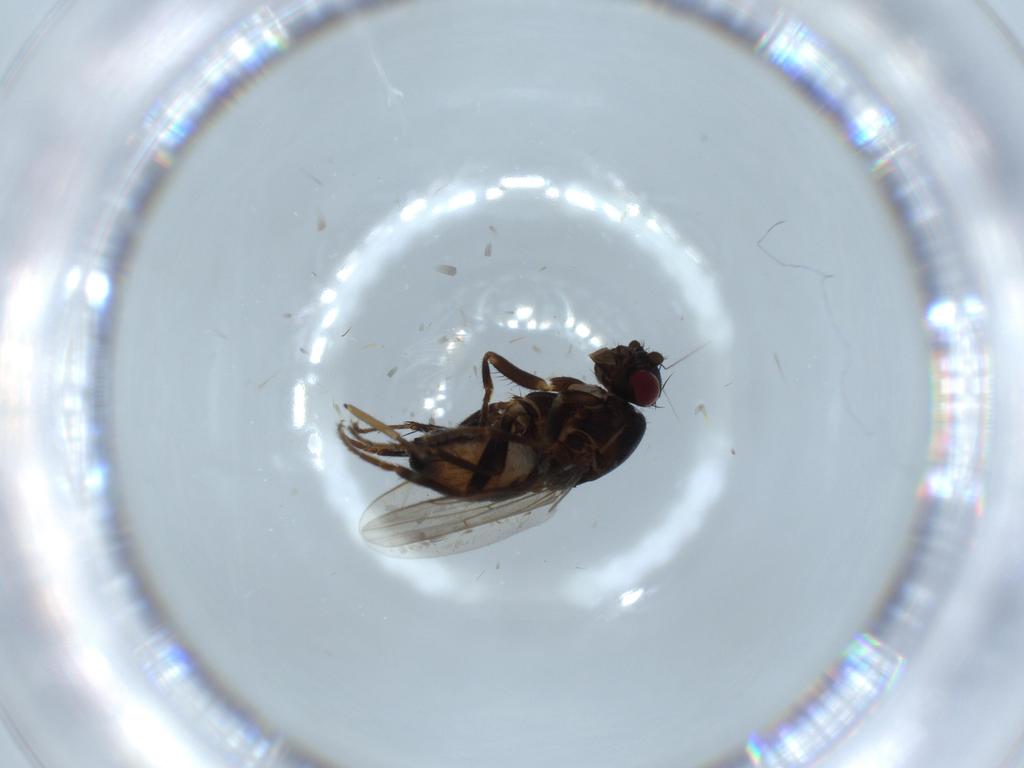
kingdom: Animalia
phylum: Arthropoda
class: Insecta
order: Diptera
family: Sphaeroceridae
